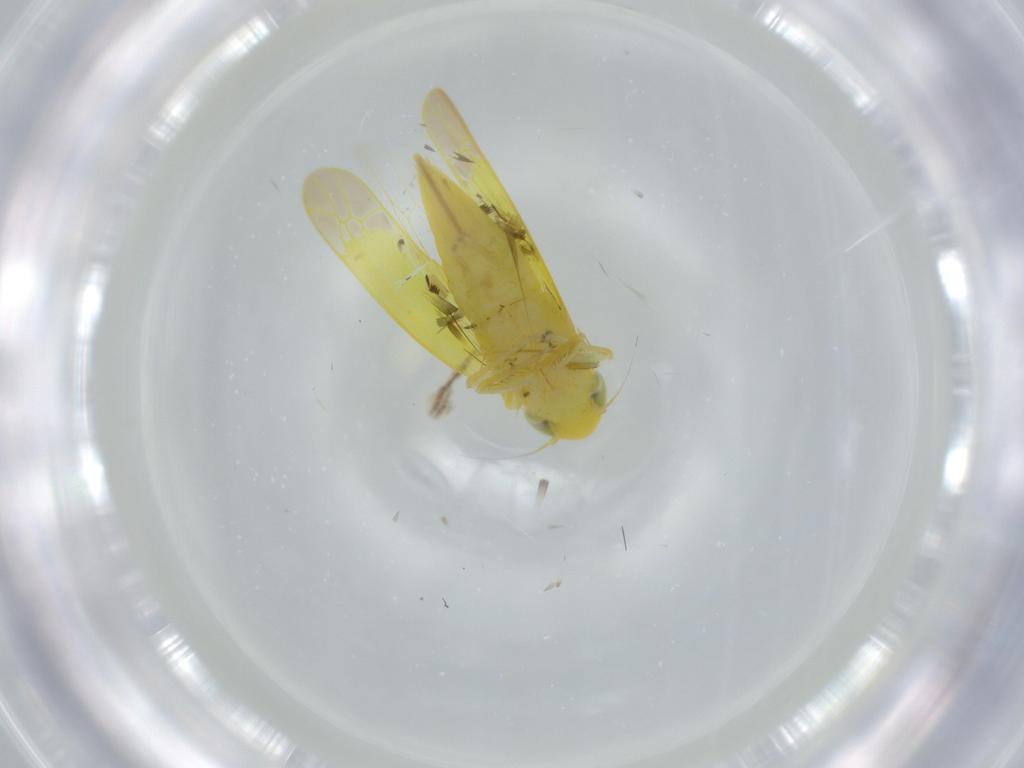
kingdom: Animalia
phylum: Arthropoda
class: Insecta
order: Hemiptera
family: Cicadellidae
